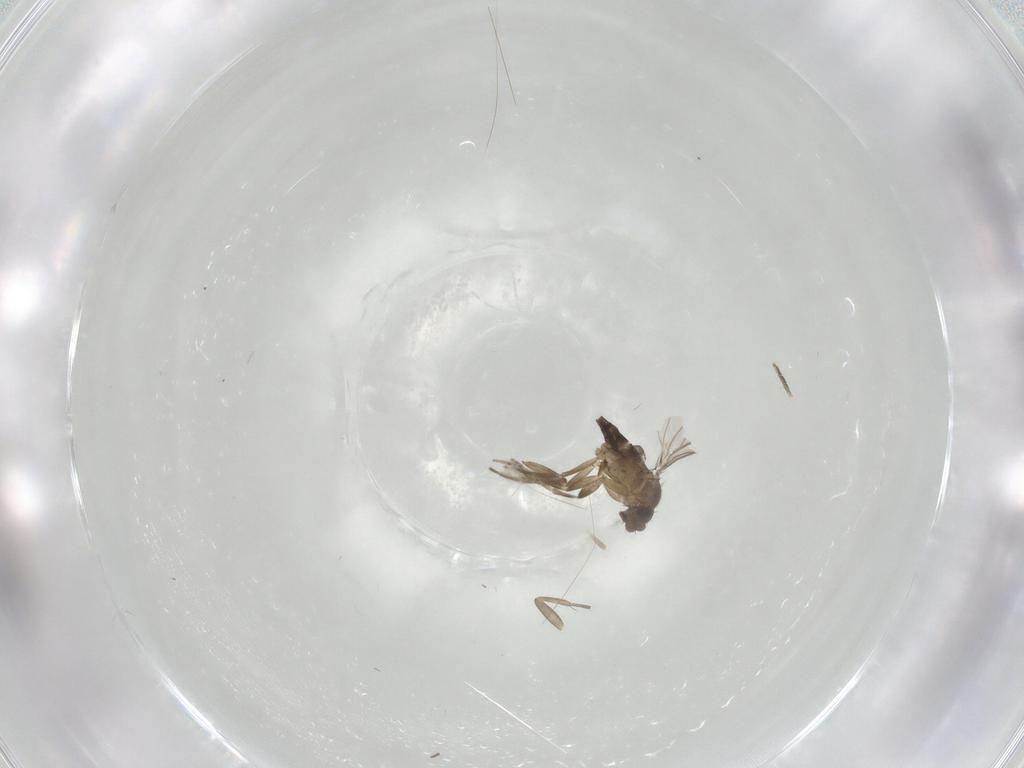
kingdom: Animalia
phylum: Arthropoda
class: Insecta
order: Diptera
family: Phoridae
